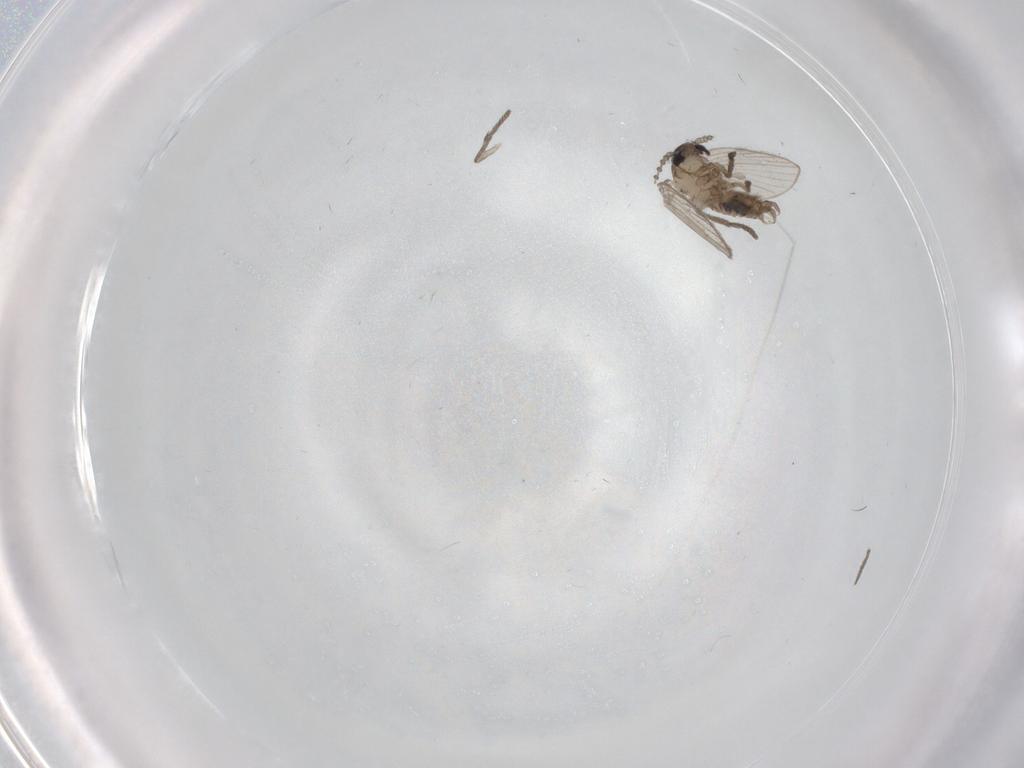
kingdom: Animalia
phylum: Arthropoda
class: Insecta
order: Diptera
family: Psychodidae
